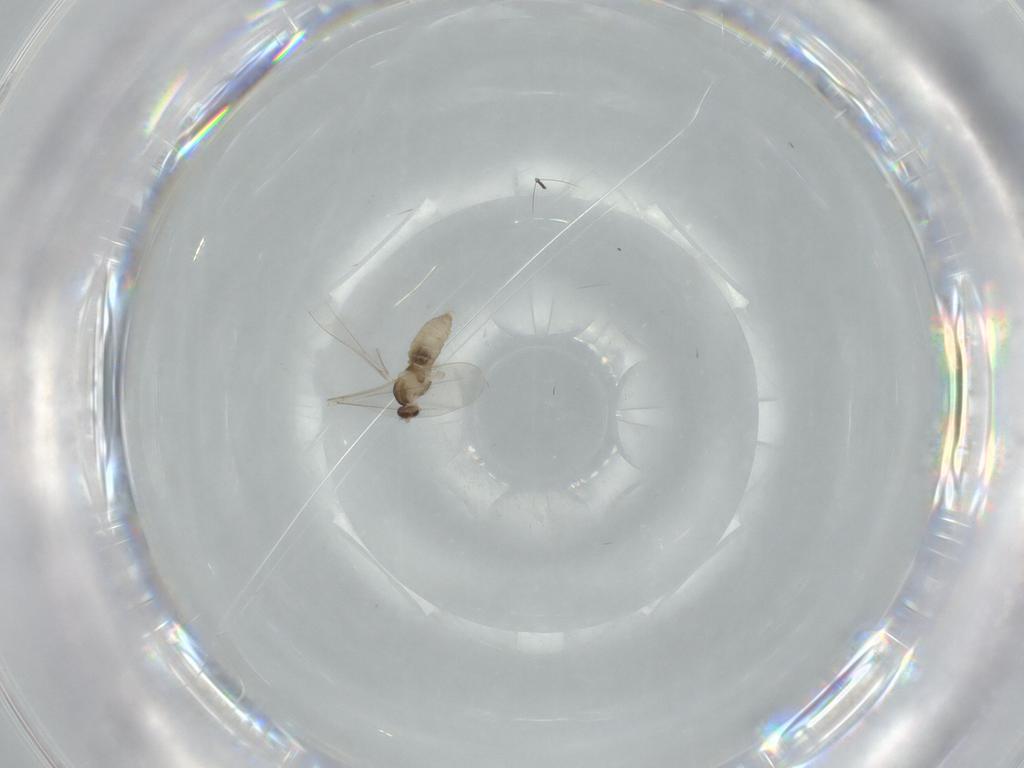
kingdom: Animalia
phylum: Arthropoda
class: Insecta
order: Diptera
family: Cecidomyiidae
